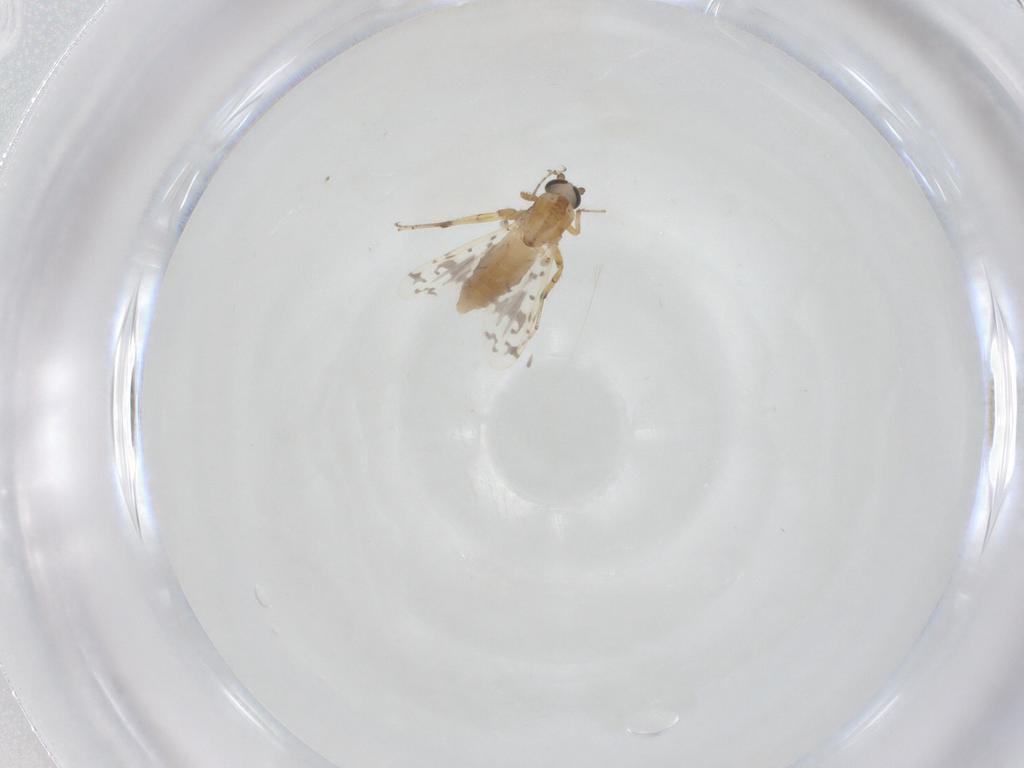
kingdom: Animalia
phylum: Arthropoda
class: Insecta
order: Diptera
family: Ceratopogonidae
